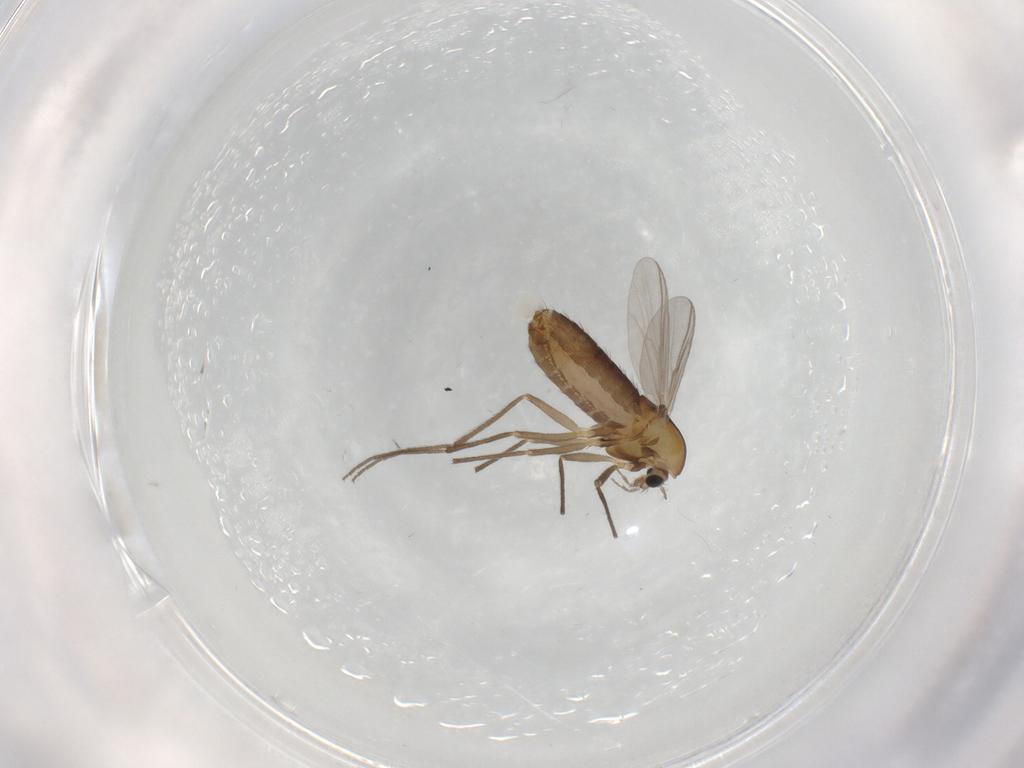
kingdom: Animalia
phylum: Arthropoda
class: Insecta
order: Diptera
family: Chironomidae
